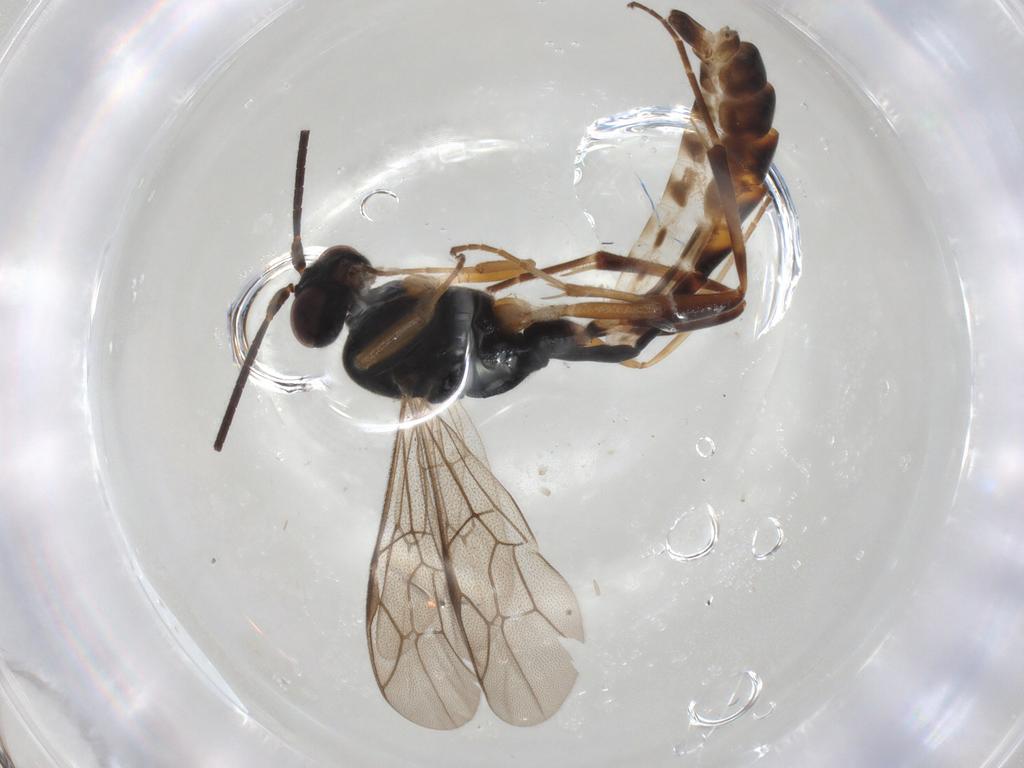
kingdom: Animalia
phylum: Arthropoda
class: Insecta
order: Hymenoptera
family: Ichneumonidae
